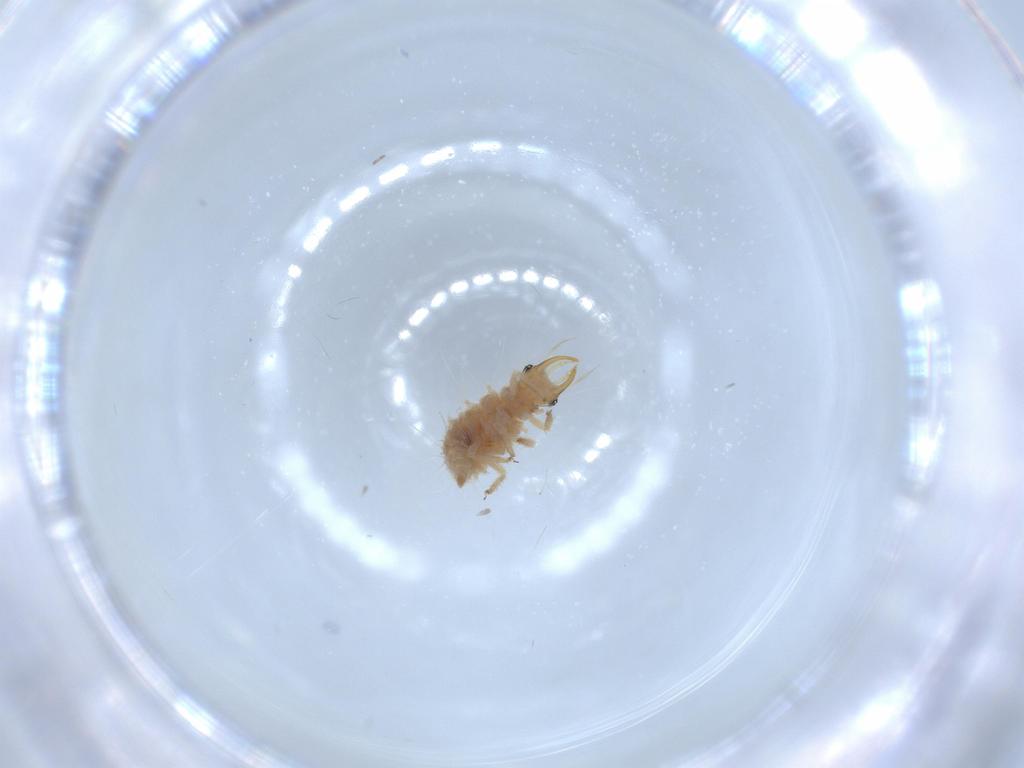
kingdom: Animalia
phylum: Arthropoda
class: Insecta
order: Neuroptera
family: Chrysopidae
